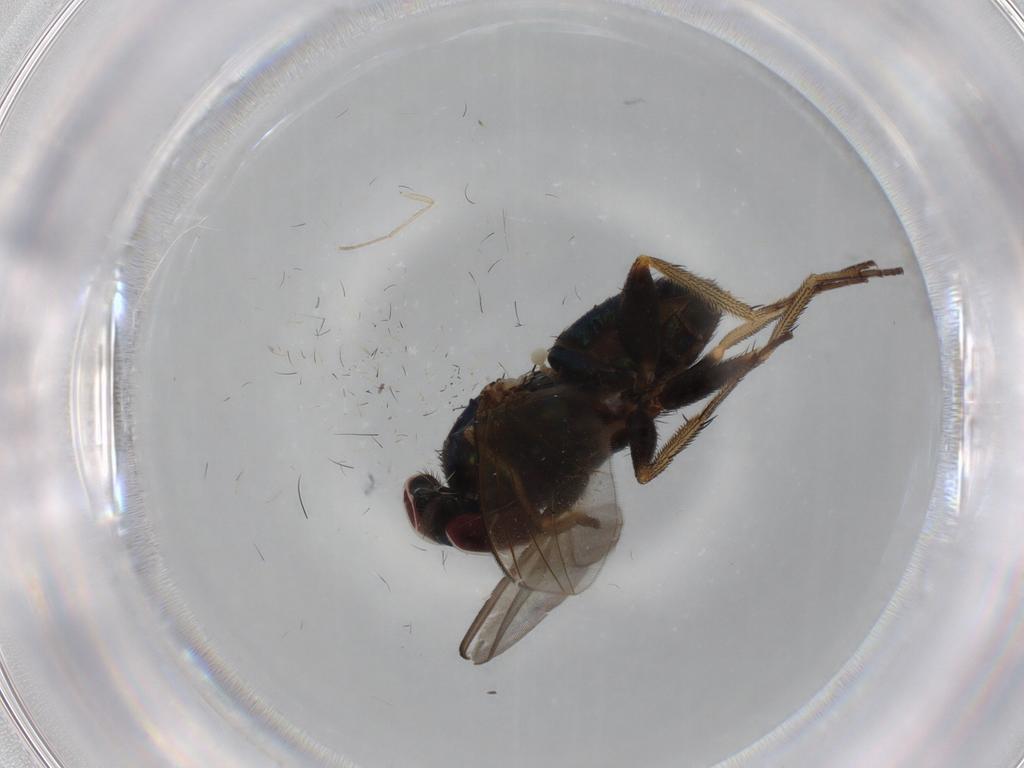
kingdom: Animalia
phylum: Arthropoda
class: Insecta
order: Diptera
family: Dolichopodidae
